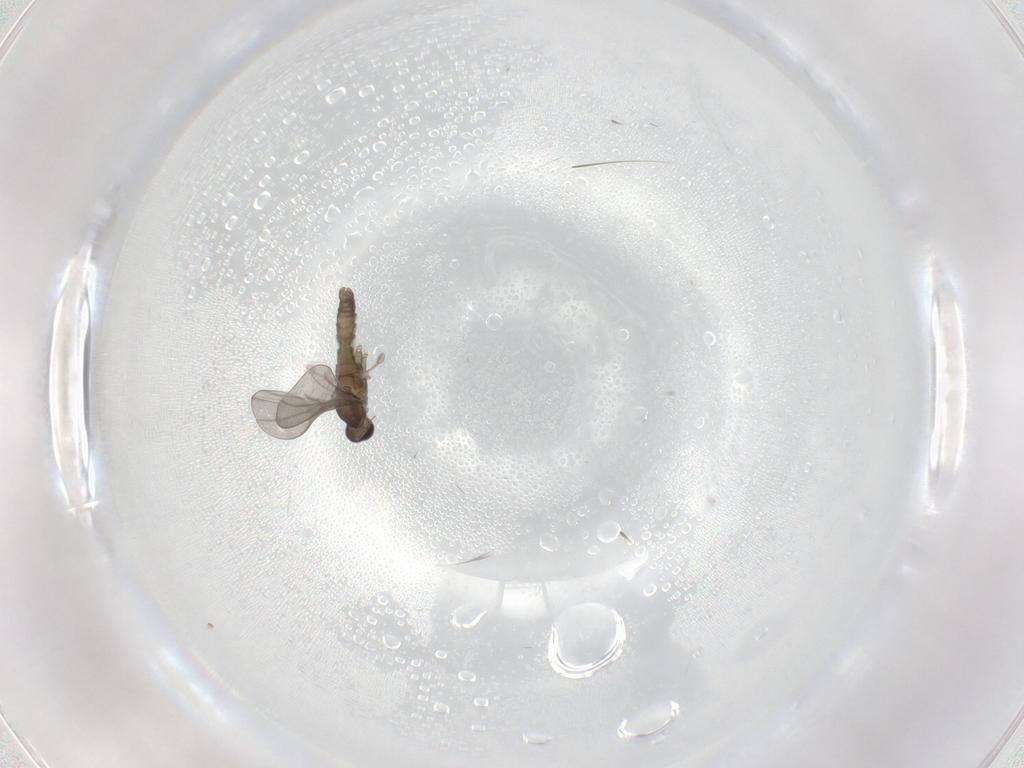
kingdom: Animalia
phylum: Arthropoda
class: Insecta
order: Diptera
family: Cecidomyiidae
